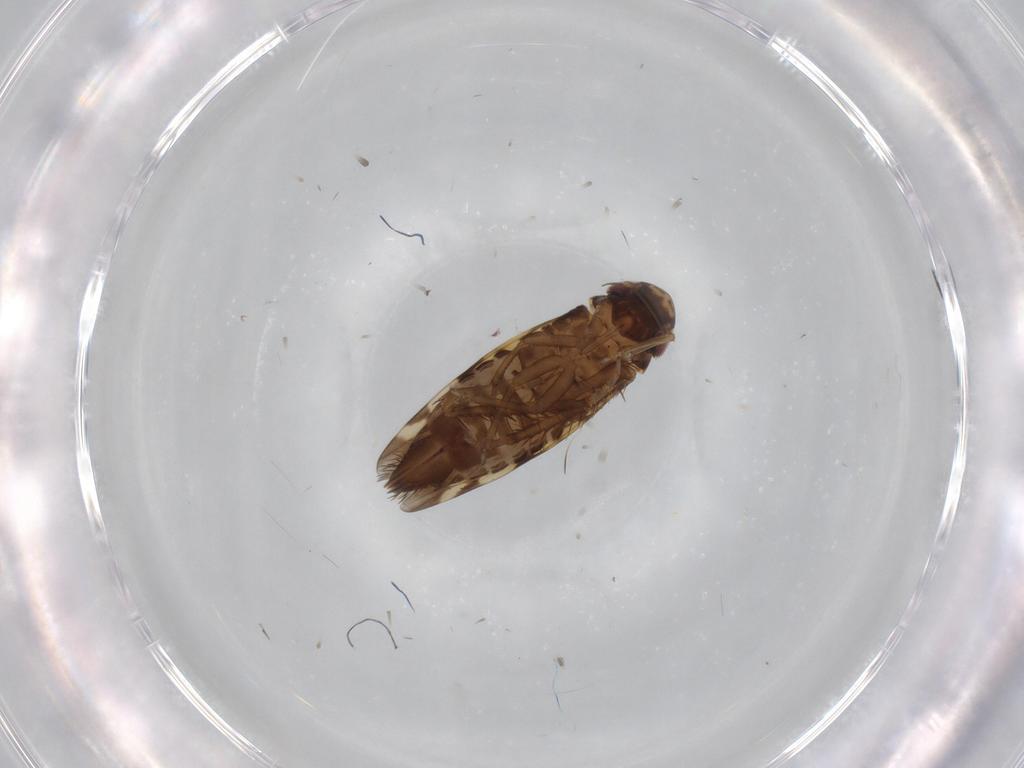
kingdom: Animalia
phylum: Arthropoda
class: Insecta
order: Hemiptera
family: Cicadellidae
